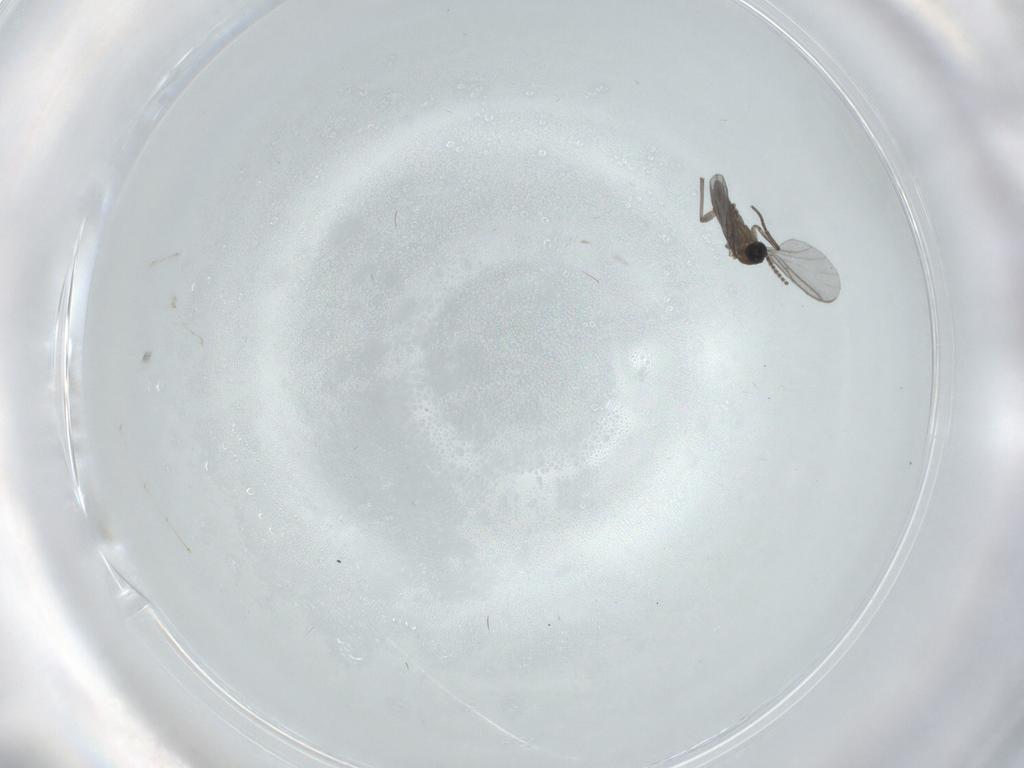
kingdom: Animalia
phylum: Arthropoda
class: Insecta
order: Diptera
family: Sciaridae
